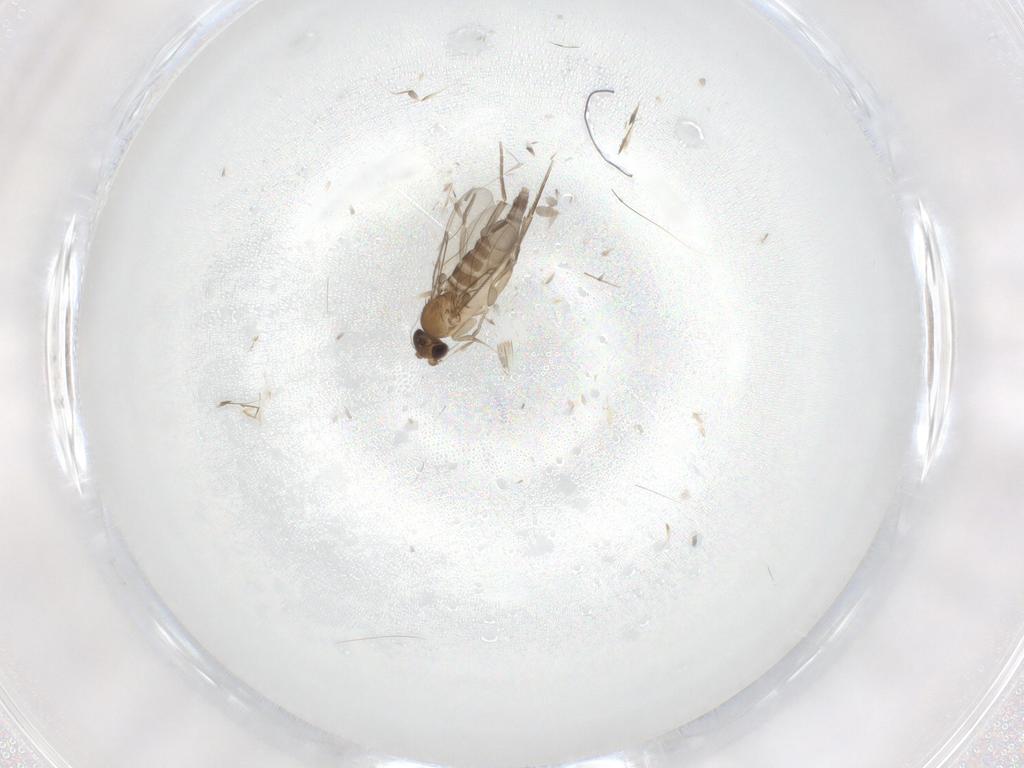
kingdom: Animalia
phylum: Arthropoda
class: Insecta
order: Diptera
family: Phoridae
